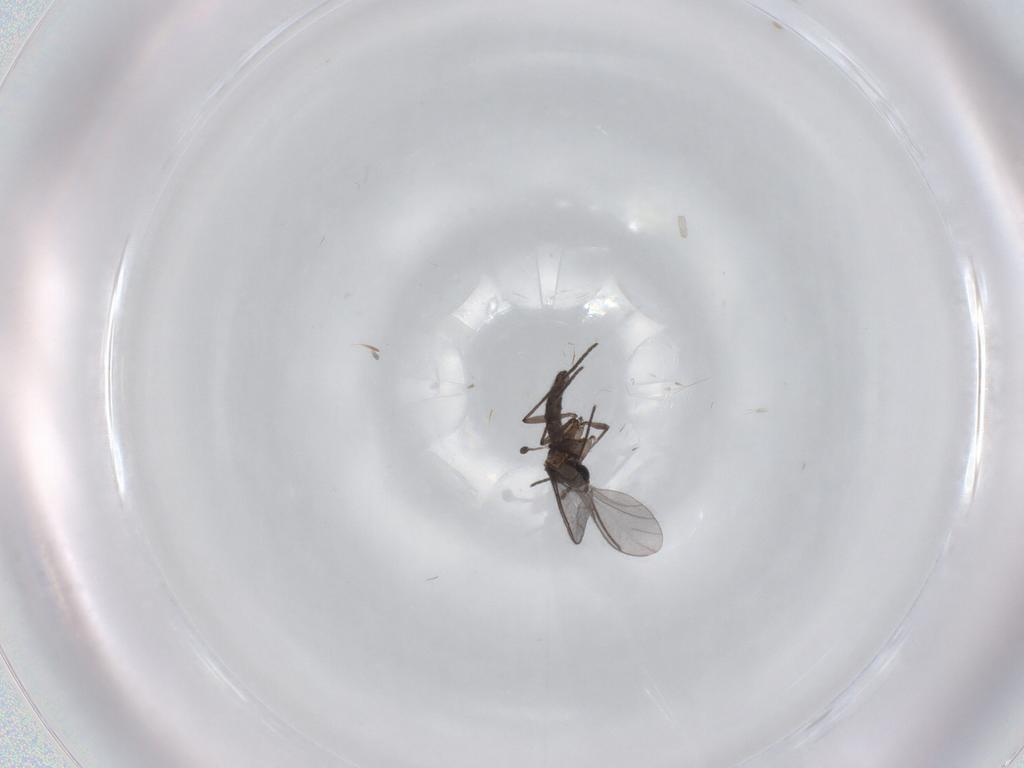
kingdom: Animalia
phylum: Arthropoda
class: Insecta
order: Diptera
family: Sciaridae
